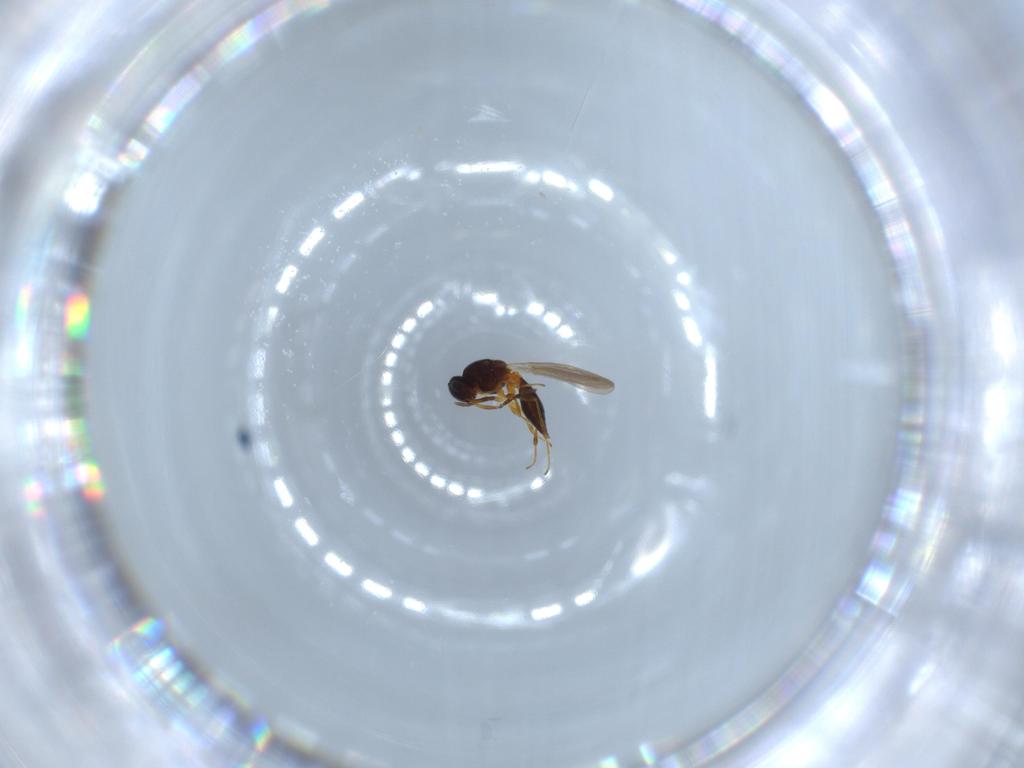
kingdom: Animalia
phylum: Arthropoda
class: Insecta
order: Hymenoptera
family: Platygastridae
